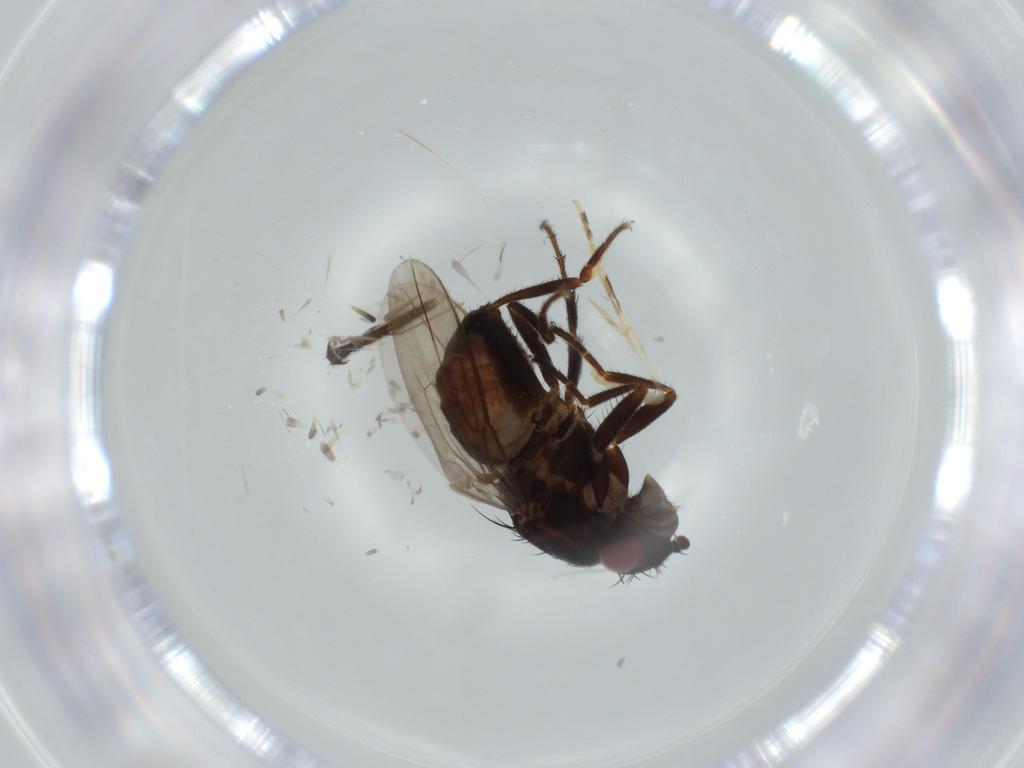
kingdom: Animalia
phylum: Arthropoda
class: Insecta
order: Diptera
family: Sphaeroceridae
